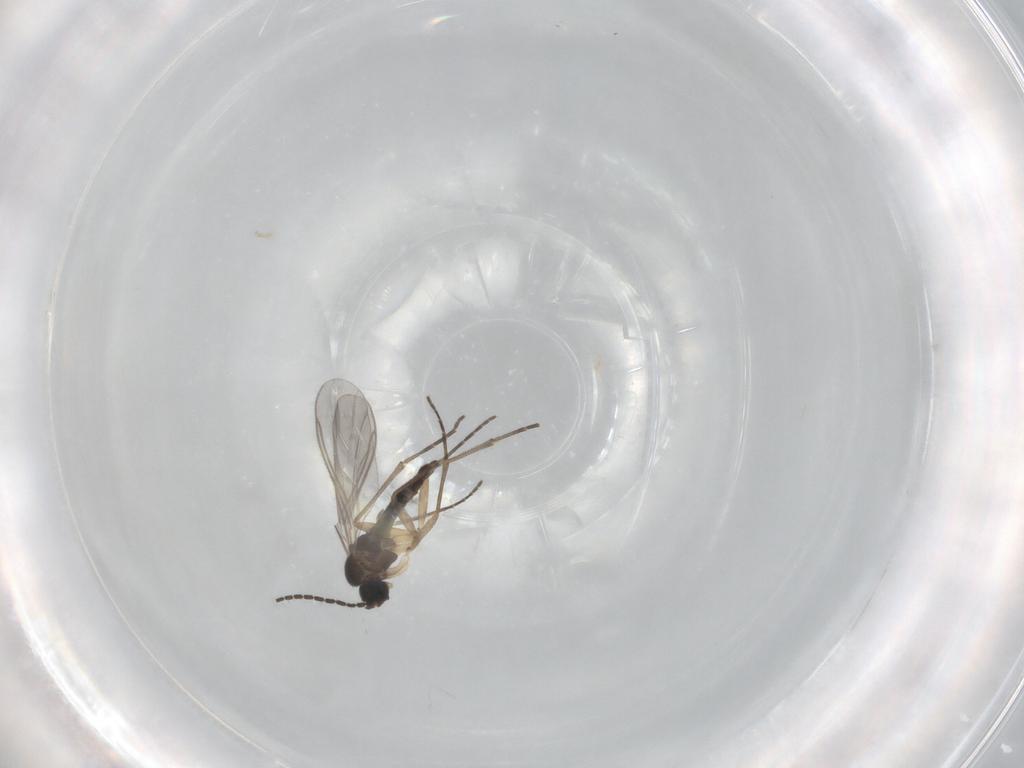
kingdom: Animalia
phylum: Arthropoda
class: Insecta
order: Diptera
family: Sciaridae
